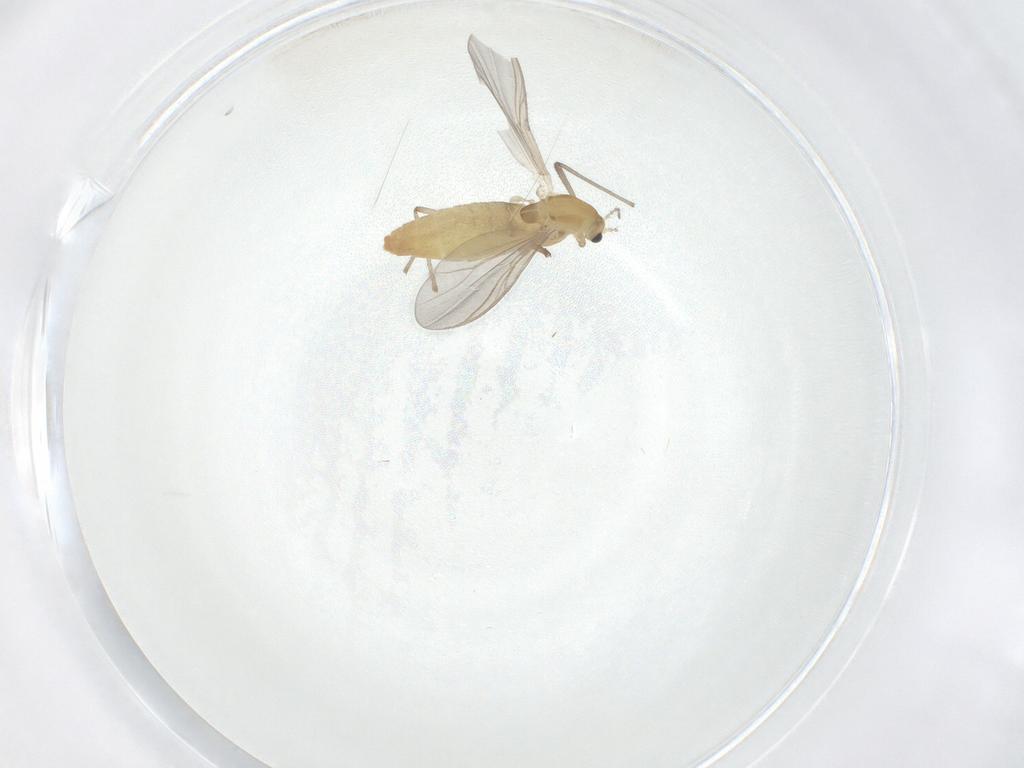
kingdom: Animalia
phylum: Arthropoda
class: Insecta
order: Diptera
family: Chironomidae
